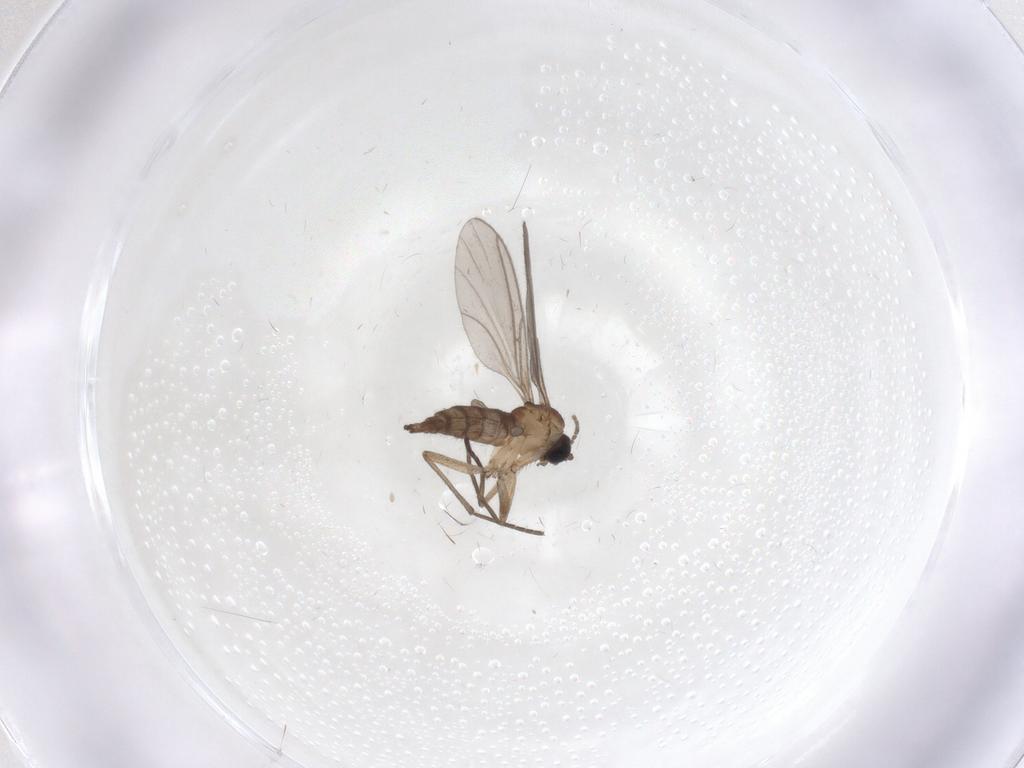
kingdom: Animalia
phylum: Arthropoda
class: Insecta
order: Diptera
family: Sciaridae
